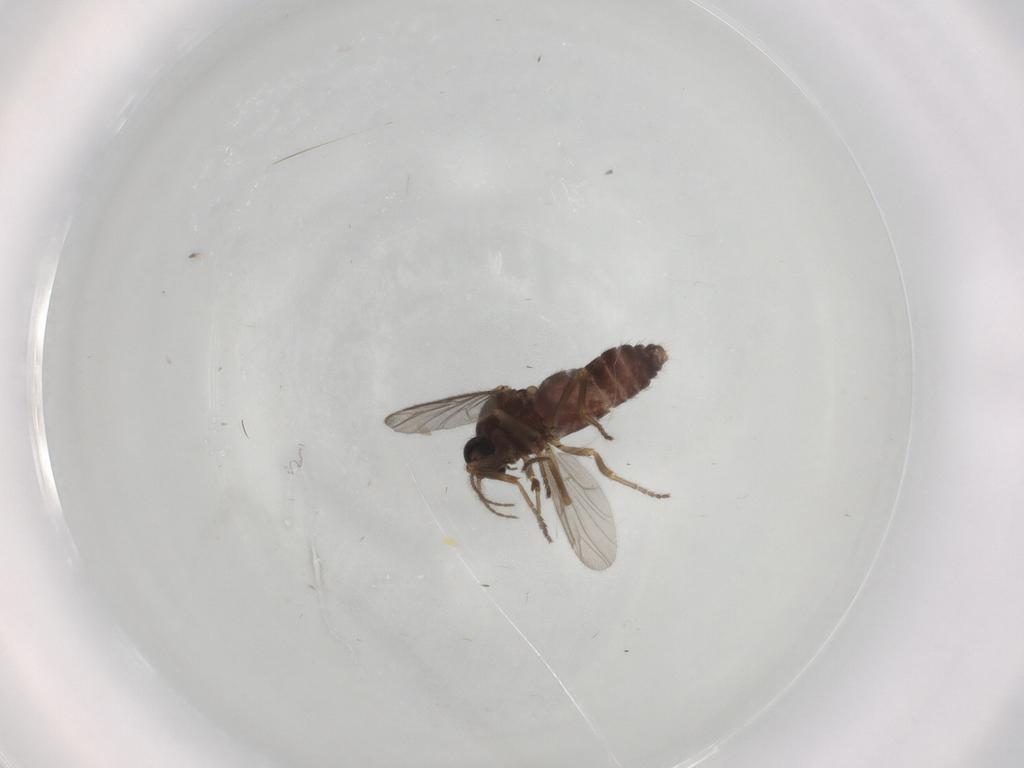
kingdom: Animalia
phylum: Arthropoda
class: Insecta
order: Diptera
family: Ceratopogonidae
